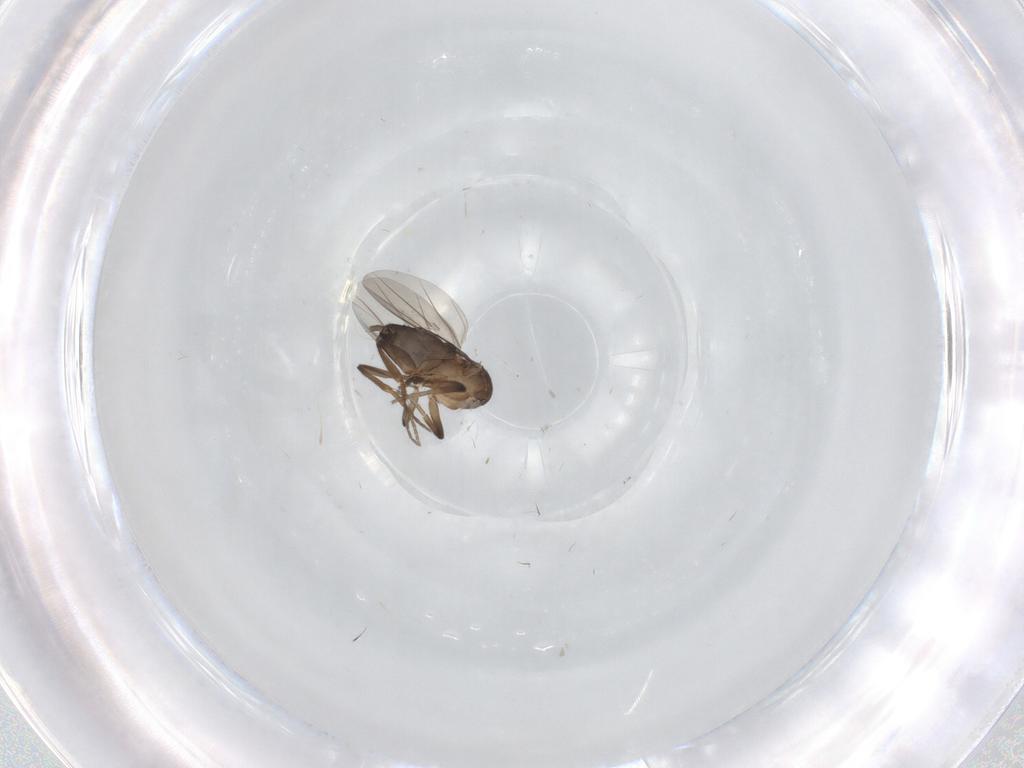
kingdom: Animalia
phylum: Arthropoda
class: Insecta
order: Diptera
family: Phoridae
